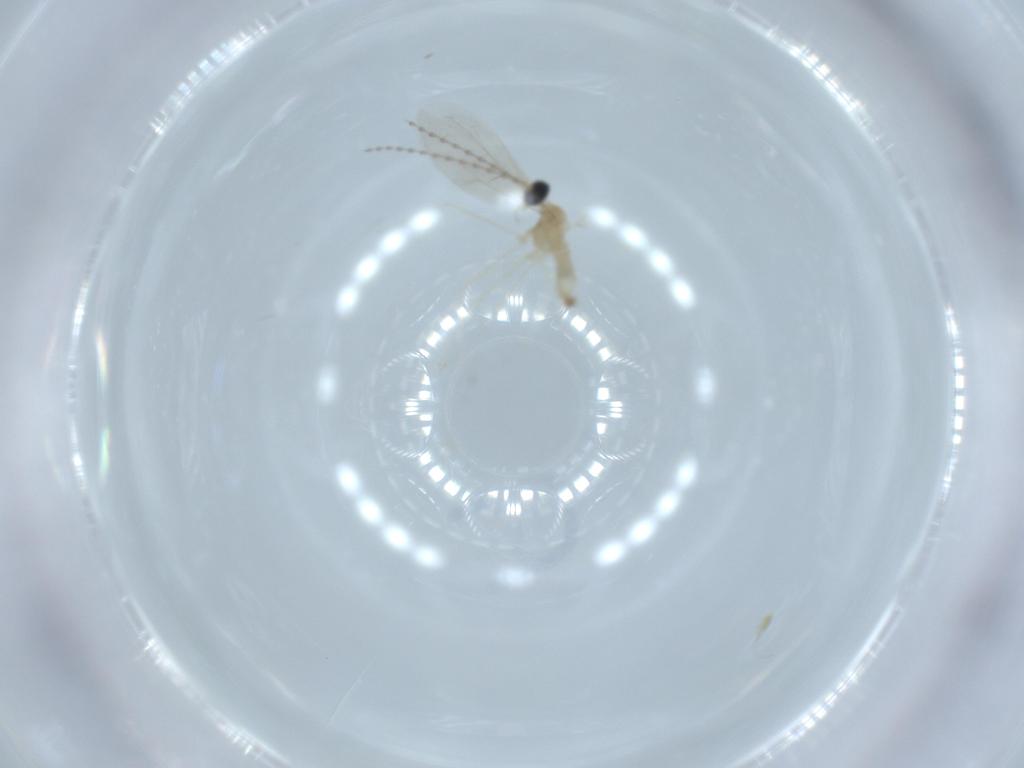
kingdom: Animalia
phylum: Arthropoda
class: Insecta
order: Diptera
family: Cecidomyiidae
